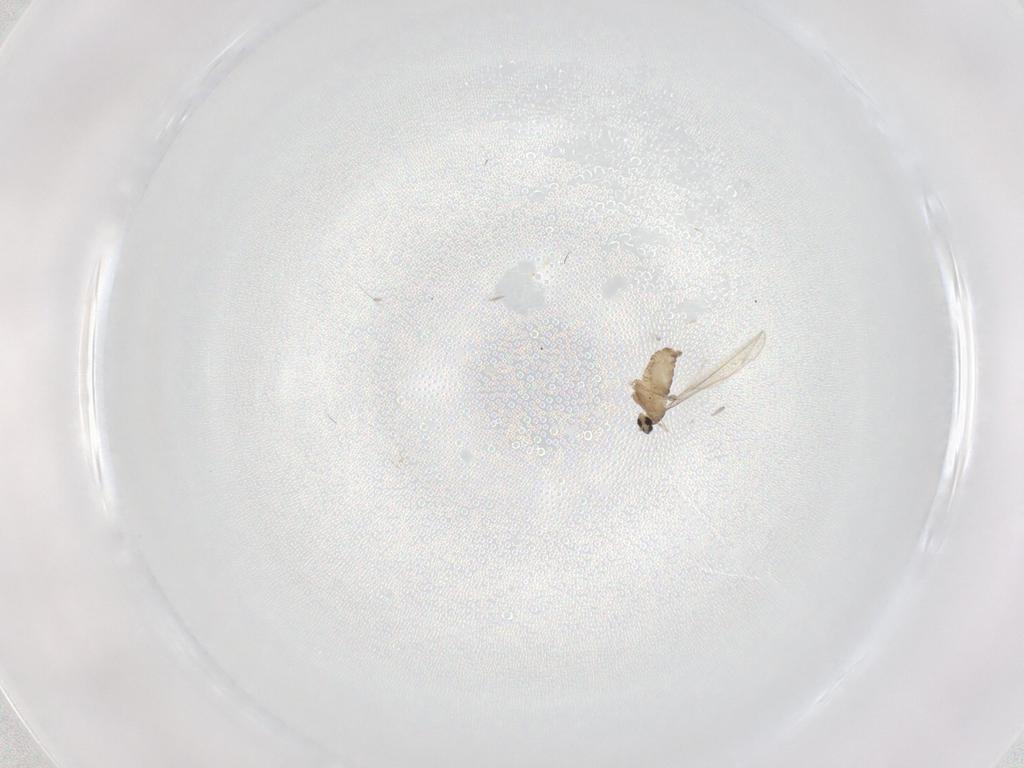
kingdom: Animalia
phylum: Arthropoda
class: Insecta
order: Diptera
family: Cecidomyiidae
